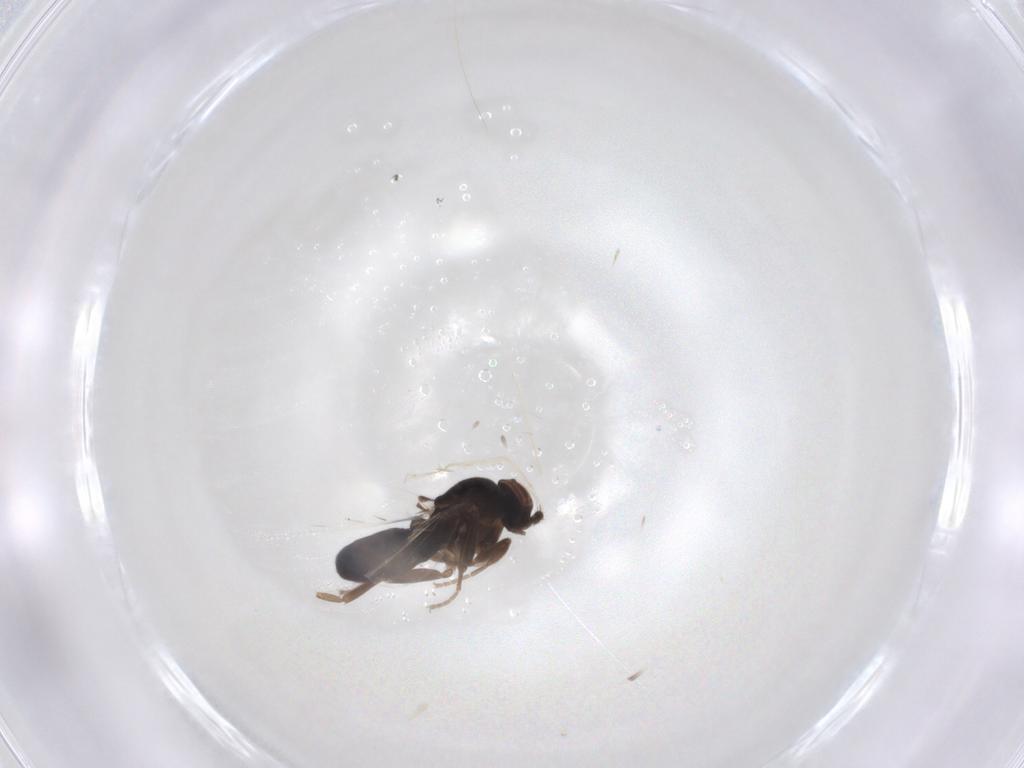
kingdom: Animalia
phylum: Arthropoda
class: Insecta
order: Diptera
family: Phoridae
